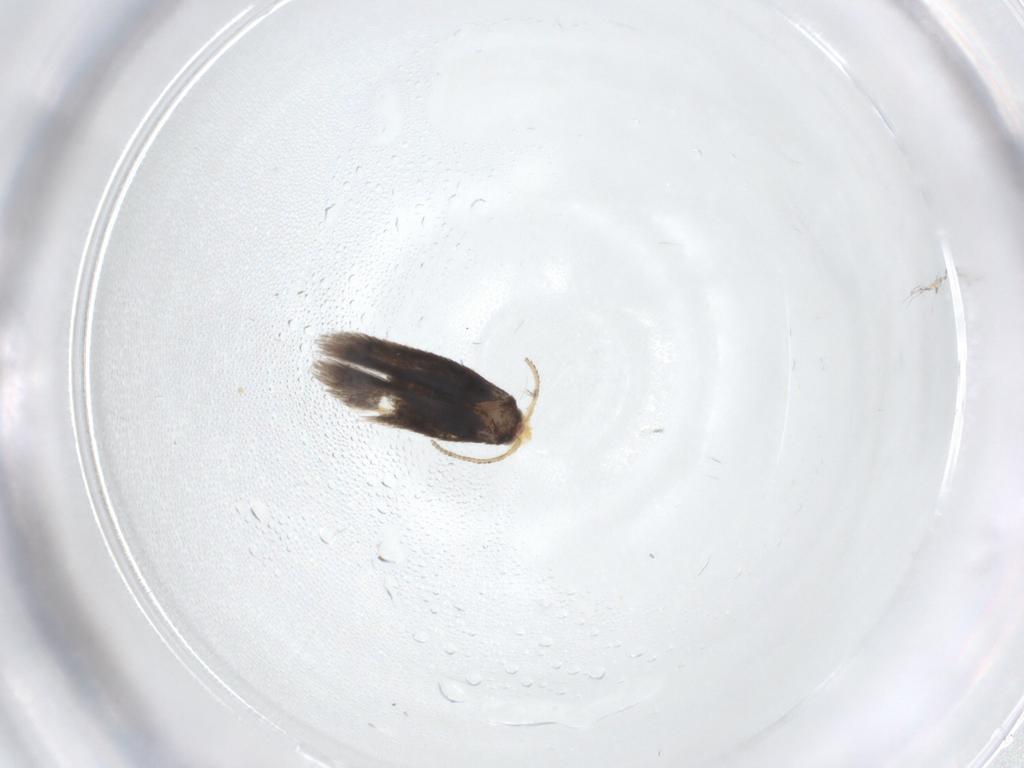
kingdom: Animalia
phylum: Arthropoda
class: Insecta
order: Lepidoptera
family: Nepticulidae
